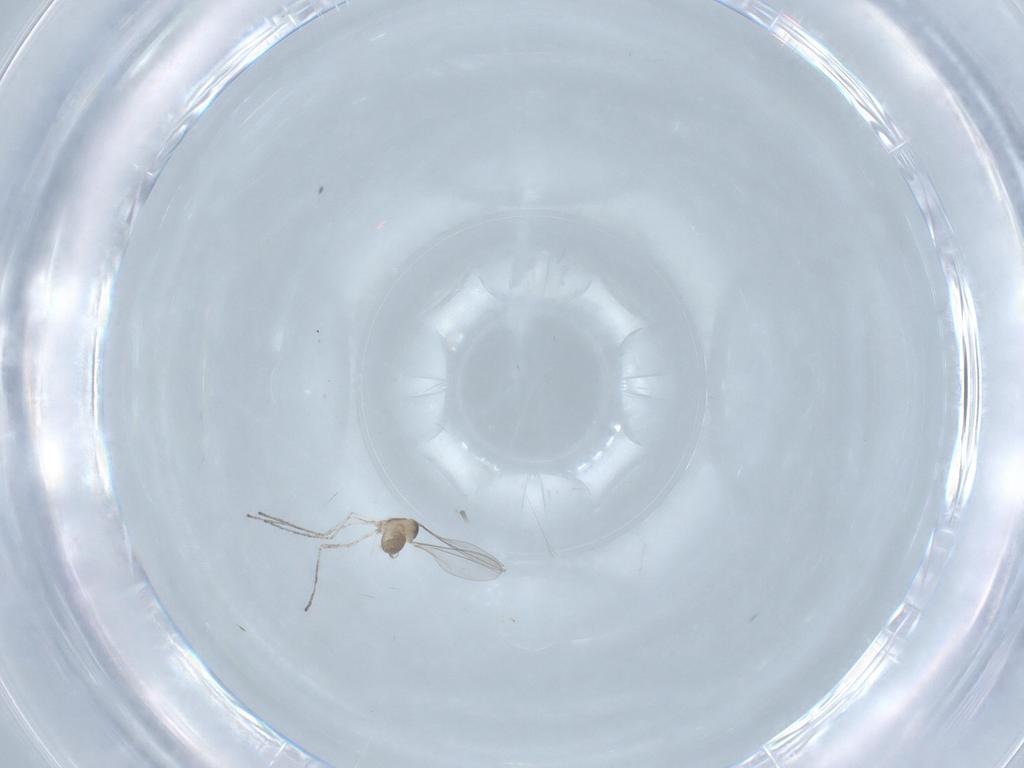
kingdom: Animalia
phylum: Arthropoda
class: Insecta
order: Diptera
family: Cecidomyiidae
